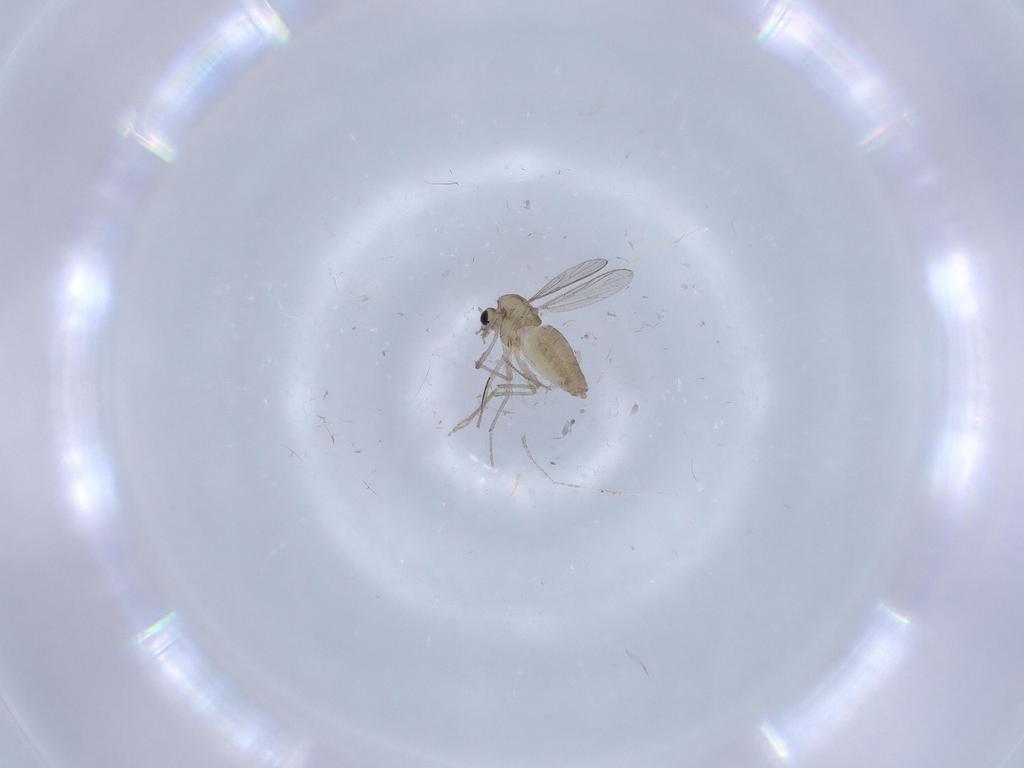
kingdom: Animalia
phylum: Arthropoda
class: Insecta
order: Diptera
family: Chironomidae
